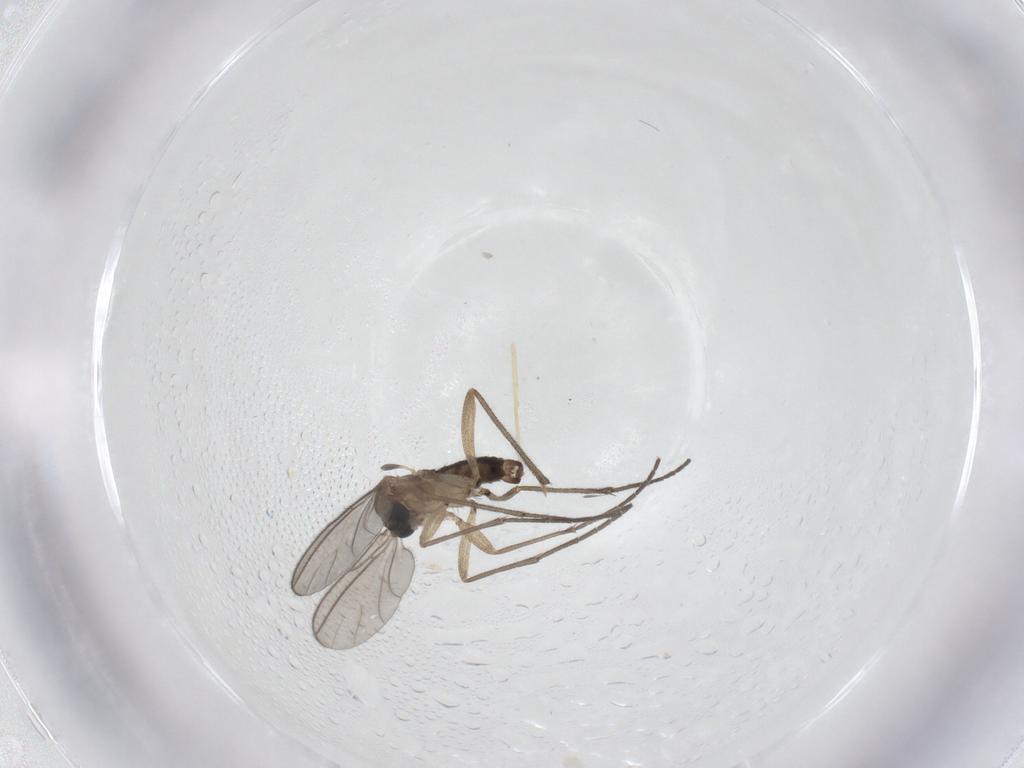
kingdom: Animalia
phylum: Arthropoda
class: Insecta
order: Diptera
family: Sciaridae
